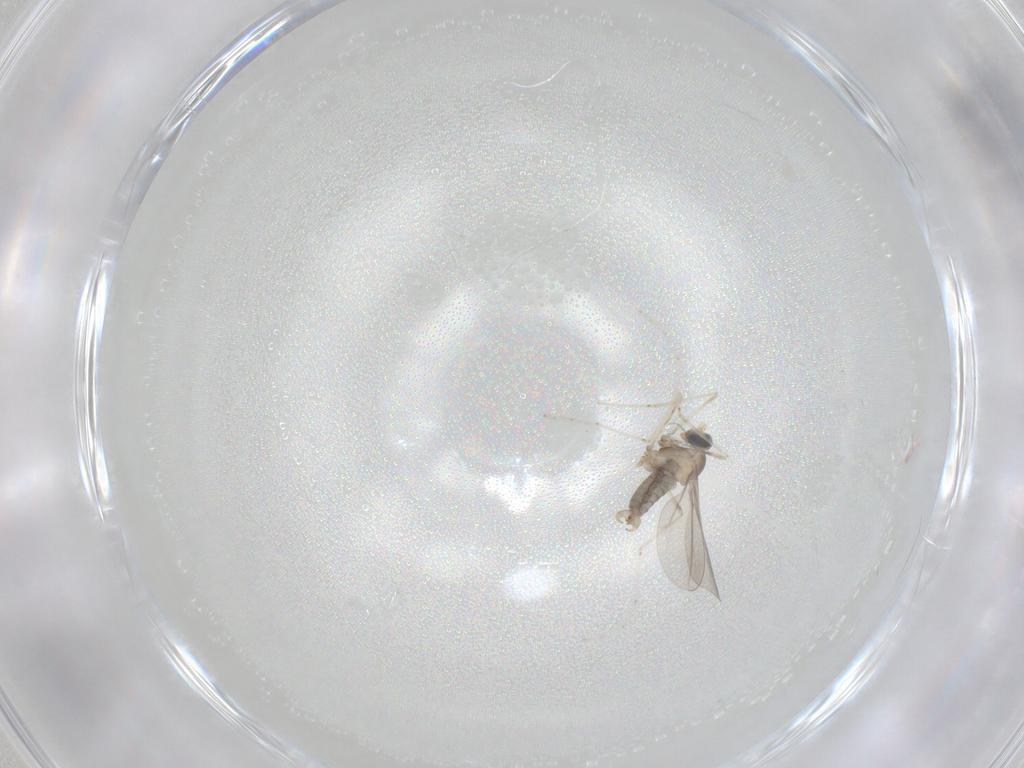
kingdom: Animalia
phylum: Arthropoda
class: Insecta
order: Diptera
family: Cecidomyiidae
